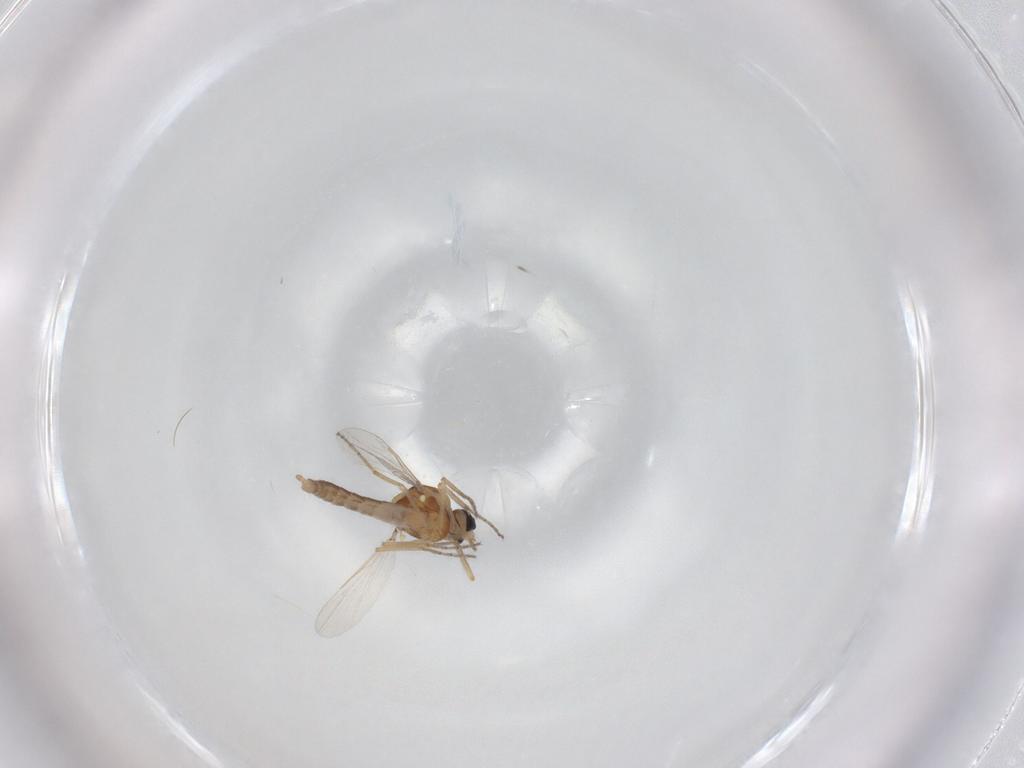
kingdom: Animalia
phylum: Arthropoda
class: Insecta
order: Diptera
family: Ceratopogonidae
